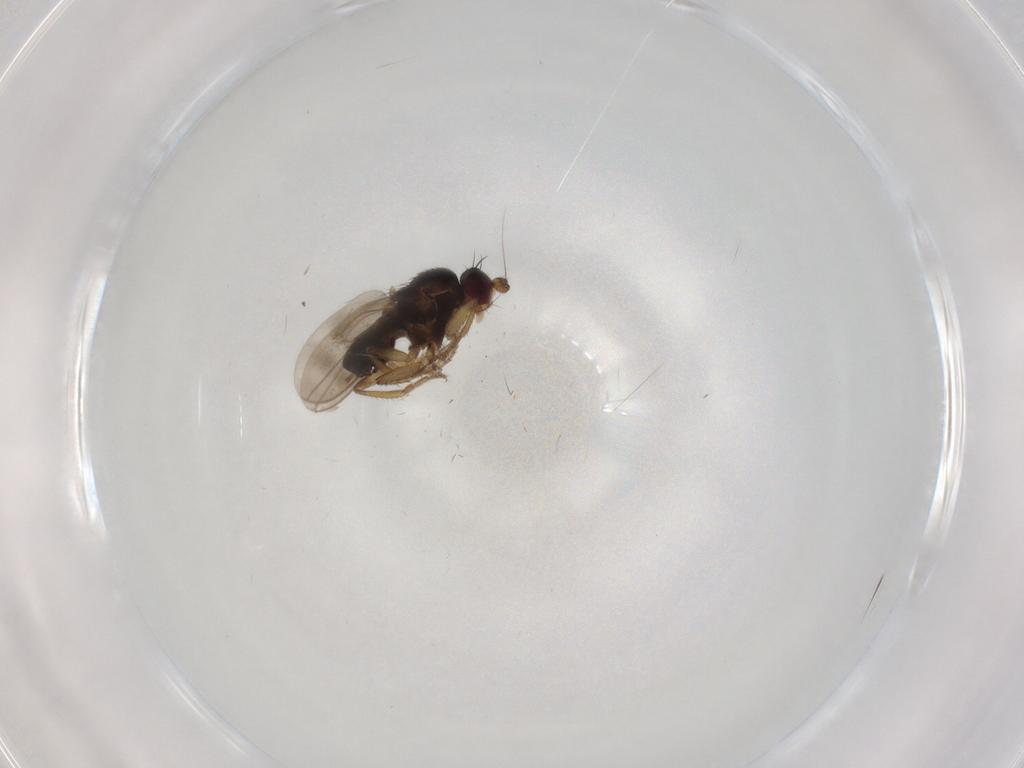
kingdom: Animalia
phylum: Arthropoda
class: Insecta
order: Diptera
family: Sphaeroceridae
